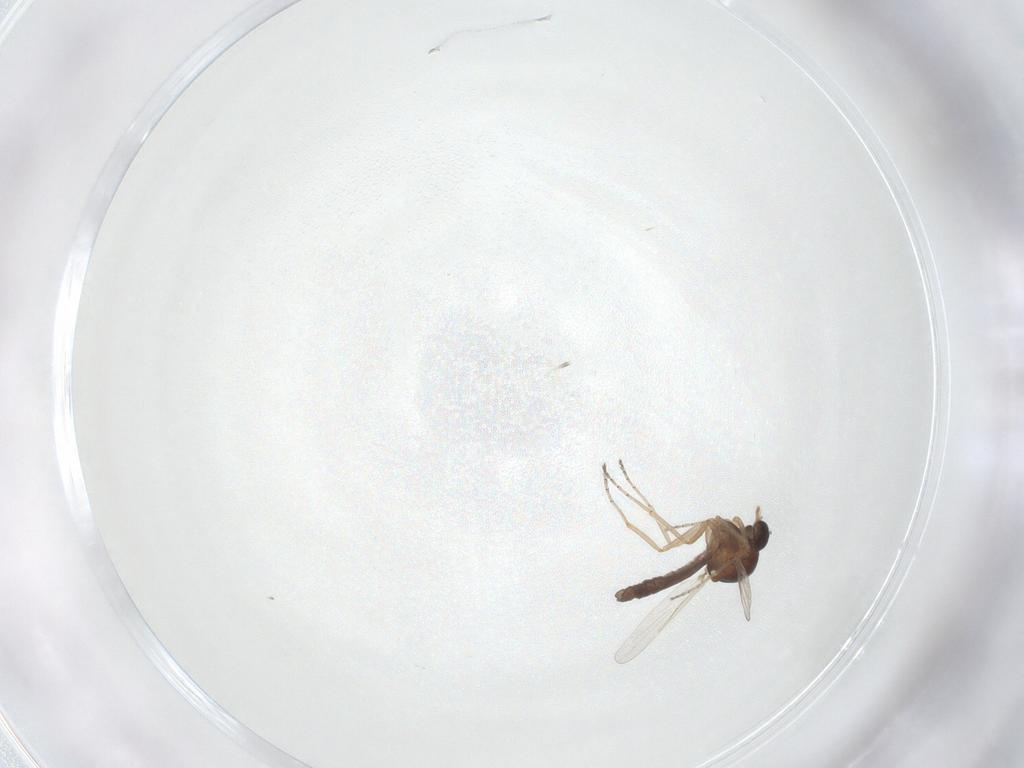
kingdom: Animalia
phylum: Arthropoda
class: Insecta
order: Diptera
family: Ceratopogonidae
